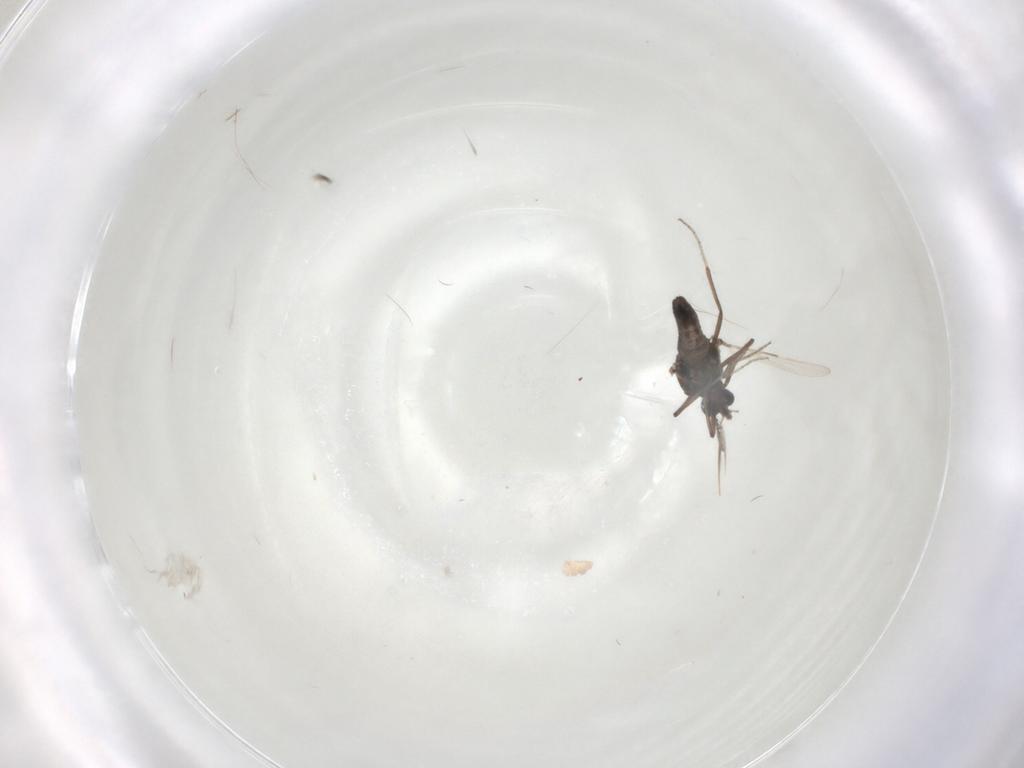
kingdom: Animalia
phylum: Arthropoda
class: Insecta
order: Diptera
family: Ceratopogonidae
